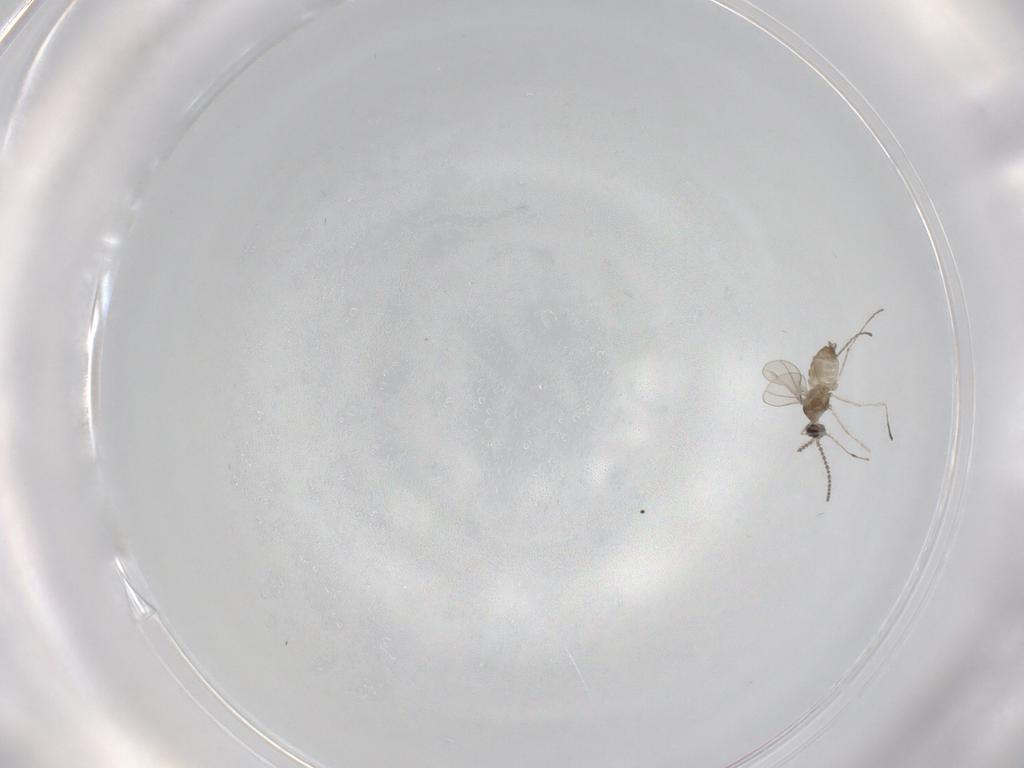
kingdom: Animalia
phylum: Arthropoda
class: Insecta
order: Diptera
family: Cecidomyiidae
